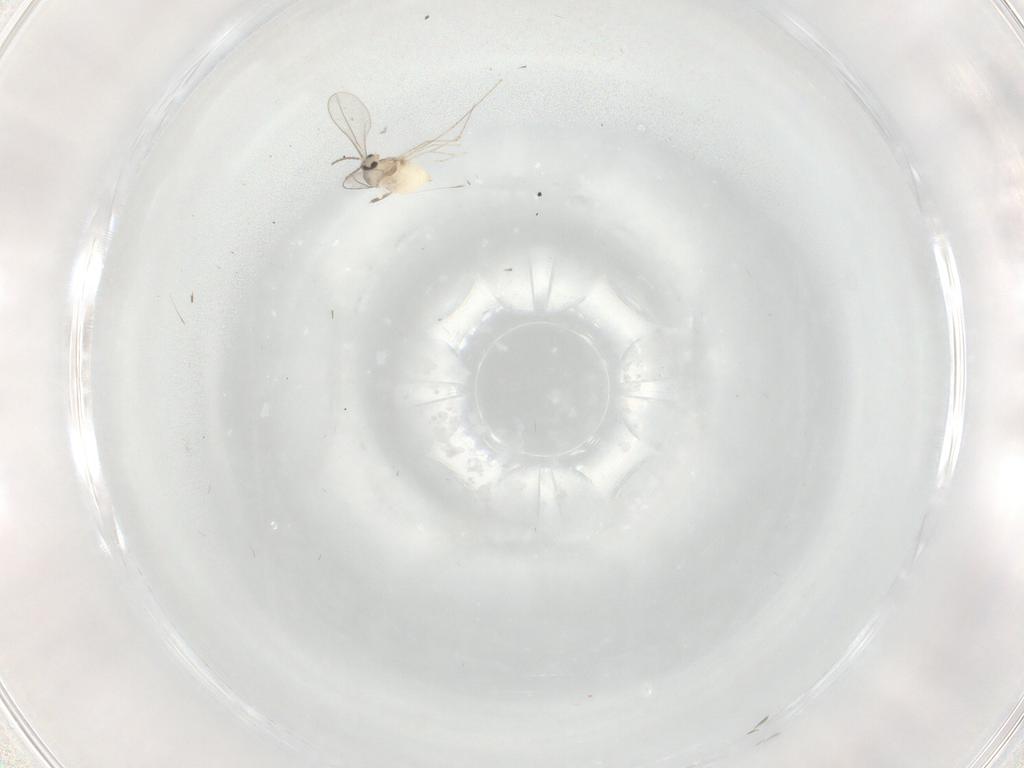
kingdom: Animalia
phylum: Arthropoda
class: Insecta
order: Diptera
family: Cecidomyiidae
